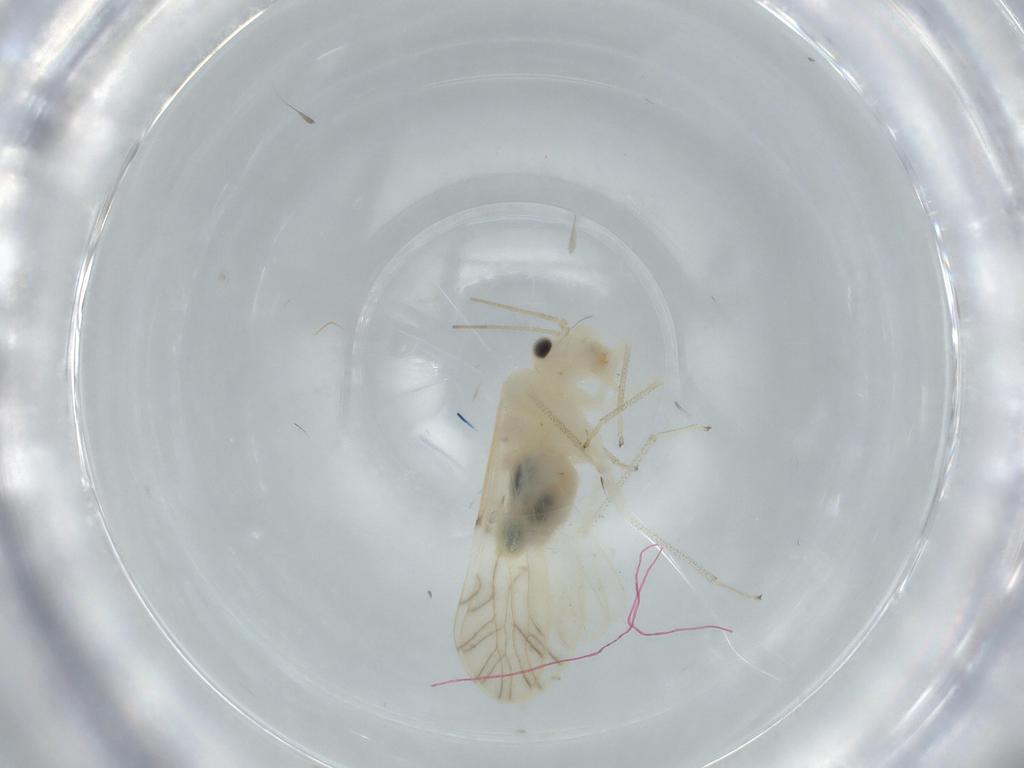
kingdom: Animalia
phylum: Arthropoda
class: Insecta
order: Psocodea
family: Caeciliusidae
